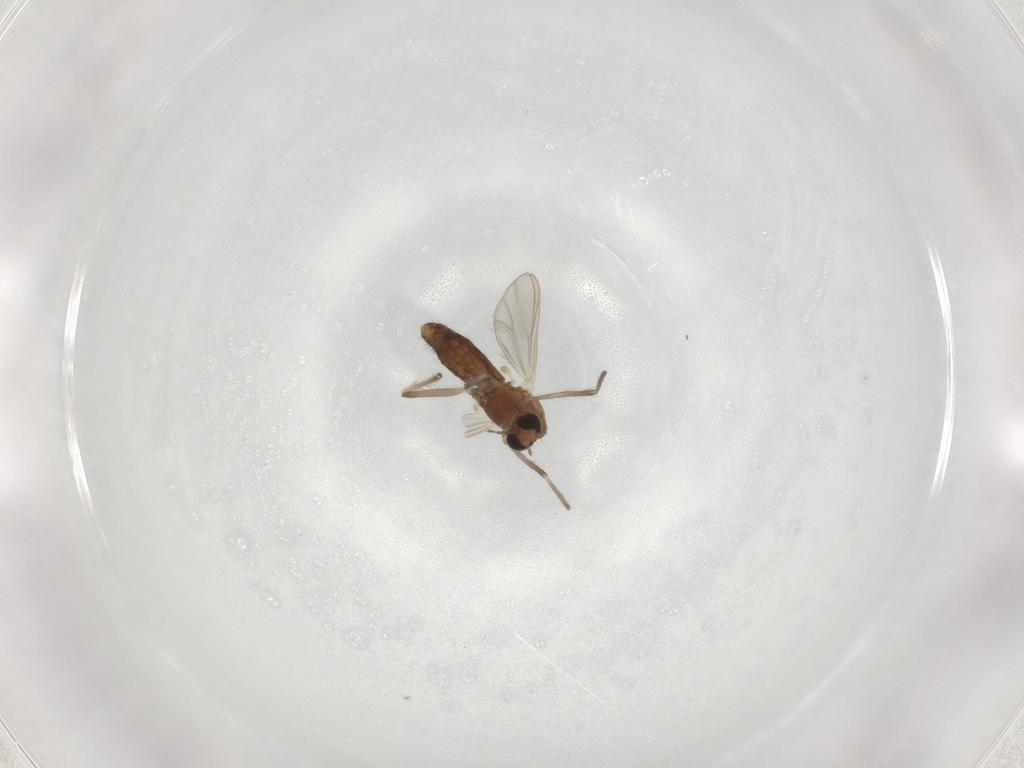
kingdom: Animalia
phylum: Arthropoda
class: Insecta
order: Diptera
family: Chironomidae
